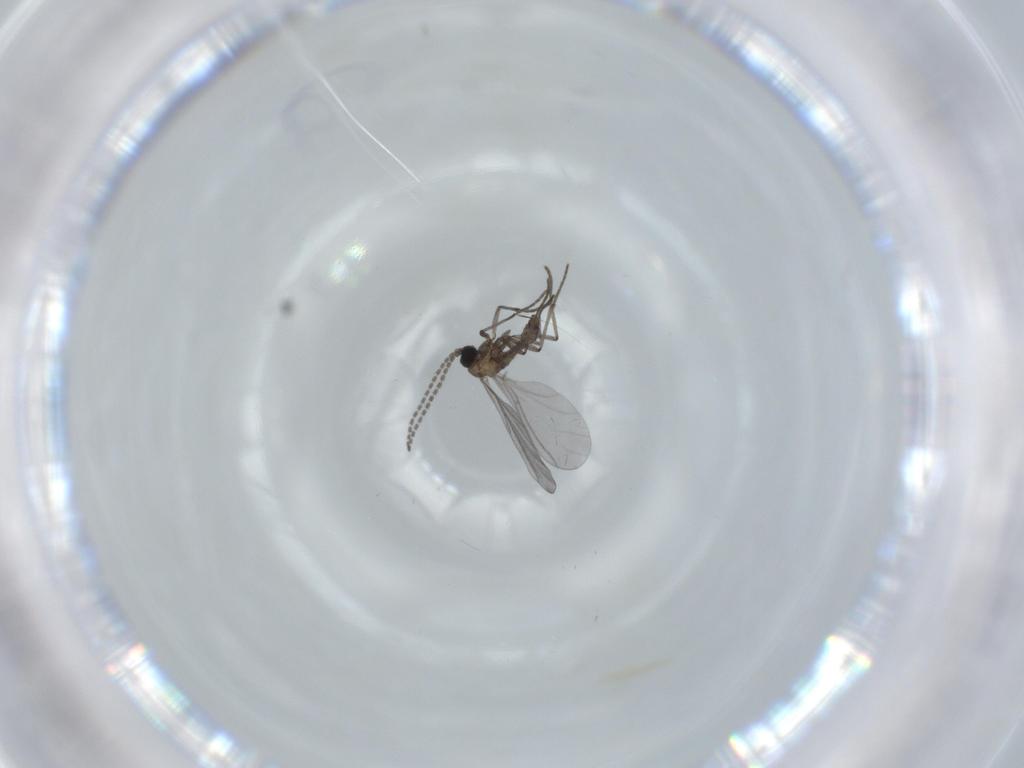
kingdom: Animalia
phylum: Arthropoda
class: Insecta
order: Diptera
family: Sciaridae
